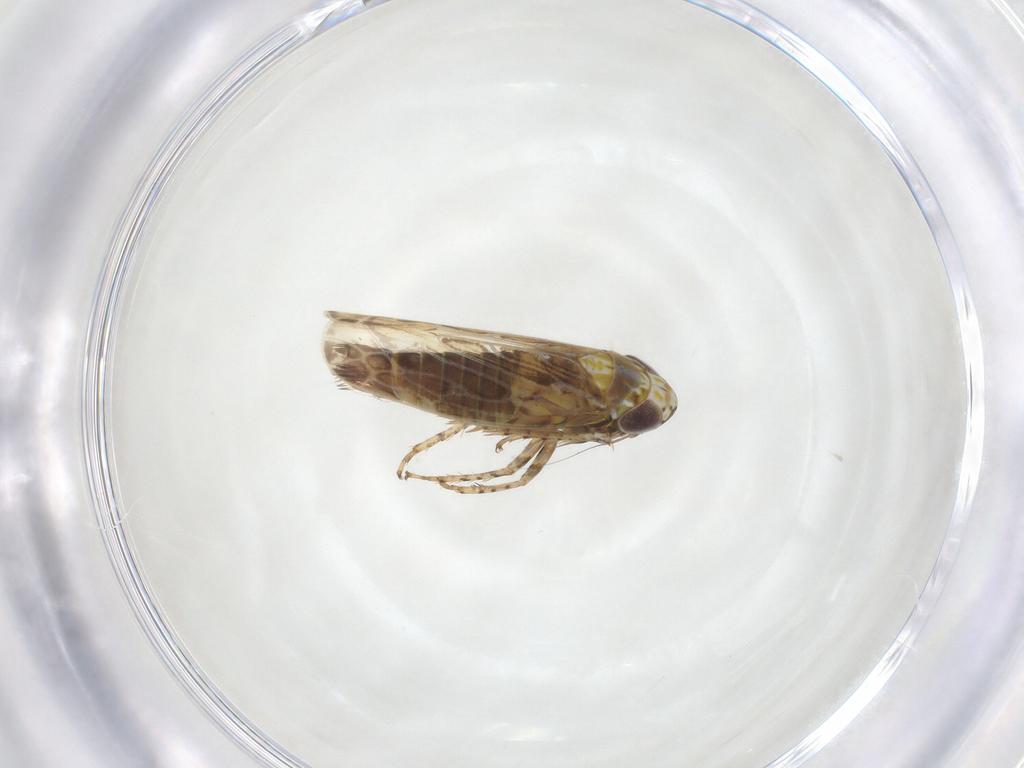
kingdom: Animalia
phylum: Arthropoda
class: Insecta
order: Hemiptera
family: Cicadellidae
